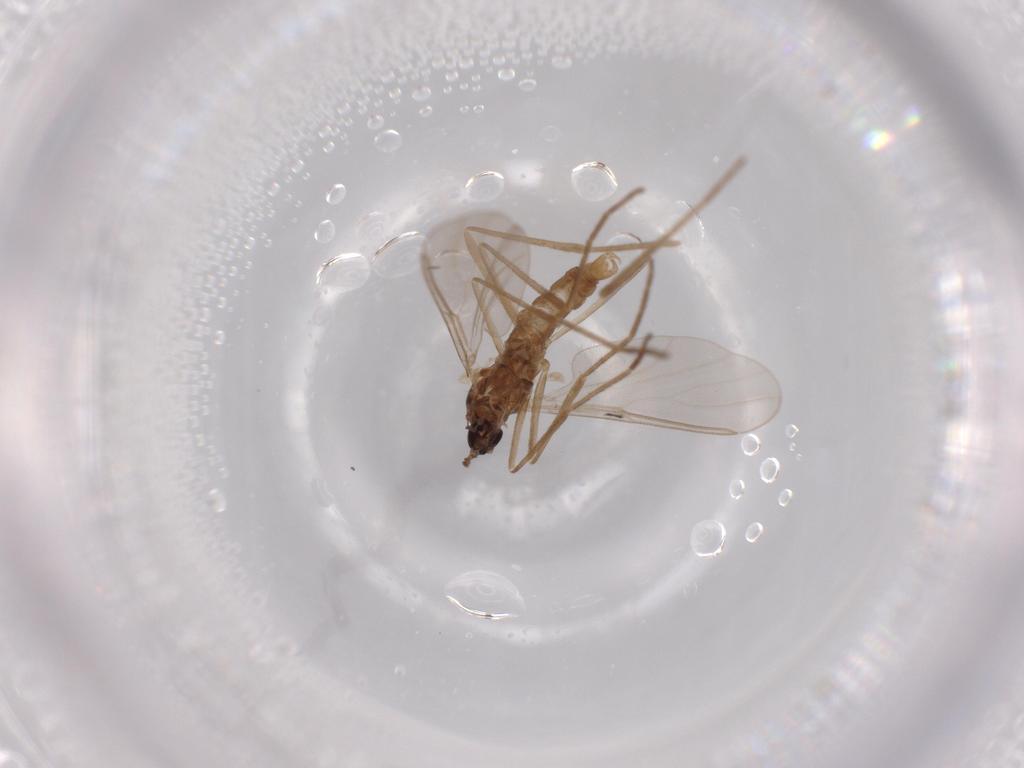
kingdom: Animalia
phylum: Arthropoda
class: Insecta
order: Diptera
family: Cecidomyiidae
